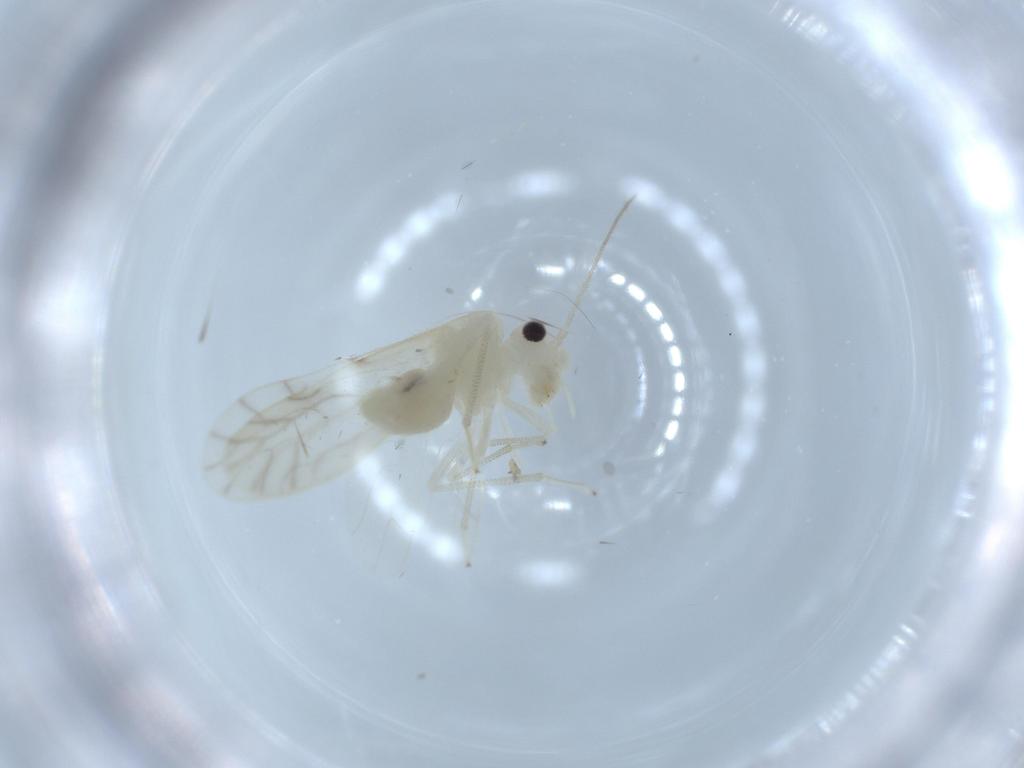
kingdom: Animalia
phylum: Arthropoda
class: Insecta
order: Psocodea
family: Caeciliusidae
